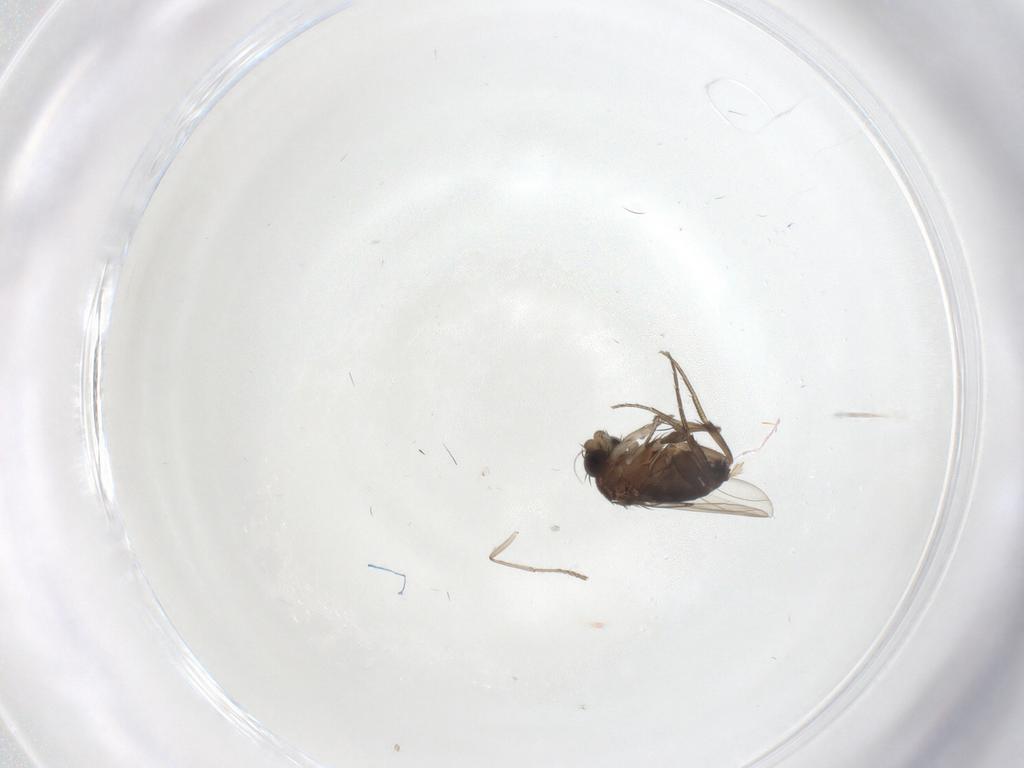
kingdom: Animalia
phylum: Arthropoda
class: Insecta
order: Diptera
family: Phoridae
